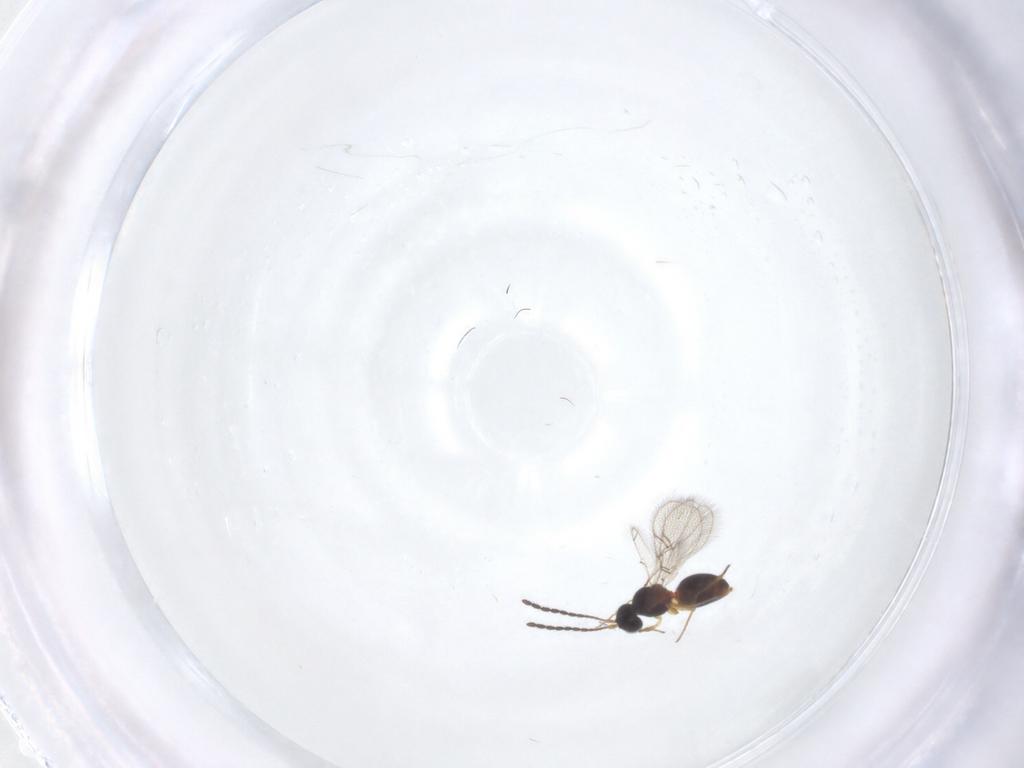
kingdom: Animalia
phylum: Arthropoda
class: Insecta
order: Hymenoptera
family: Figitidae
